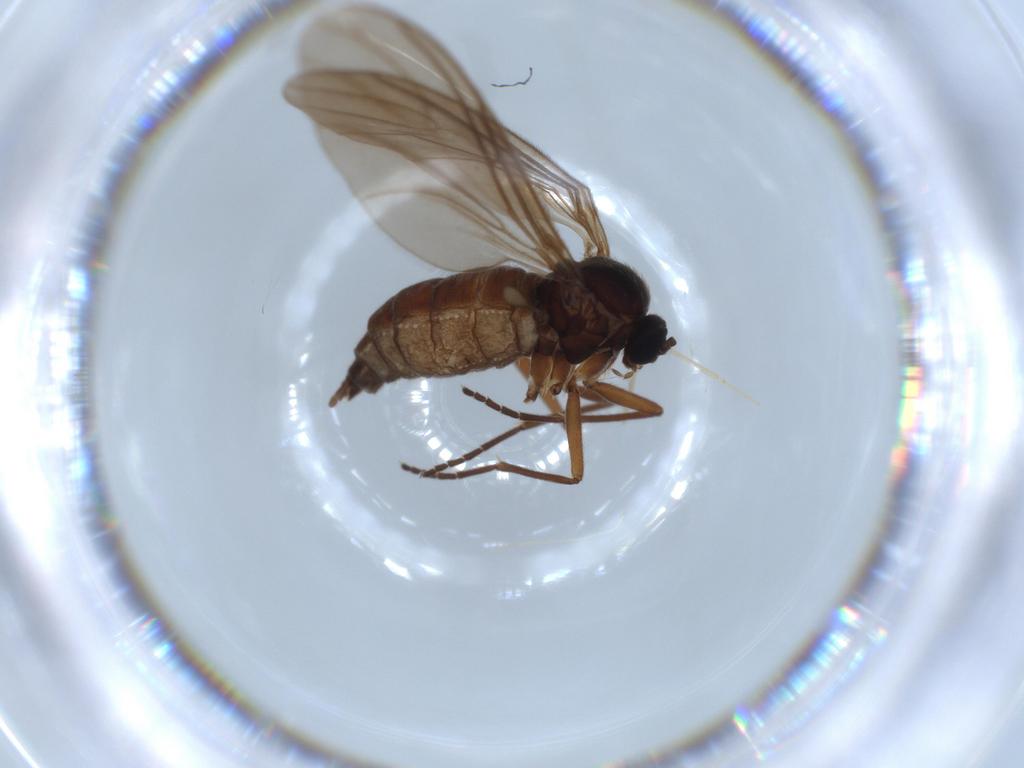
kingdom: Animalia
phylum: Arthropoda
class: Insecta
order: Diptera
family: Sciaridae
